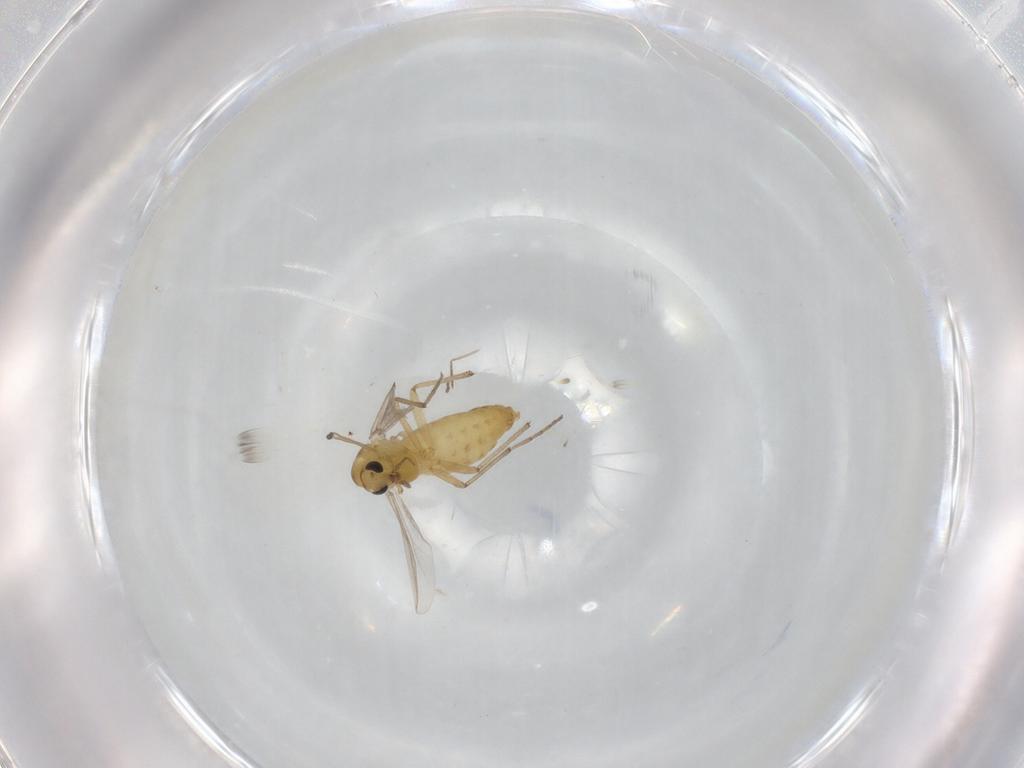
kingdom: Animalia
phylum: Arthropoda
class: Insecta
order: Diptera
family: Chironomidae
